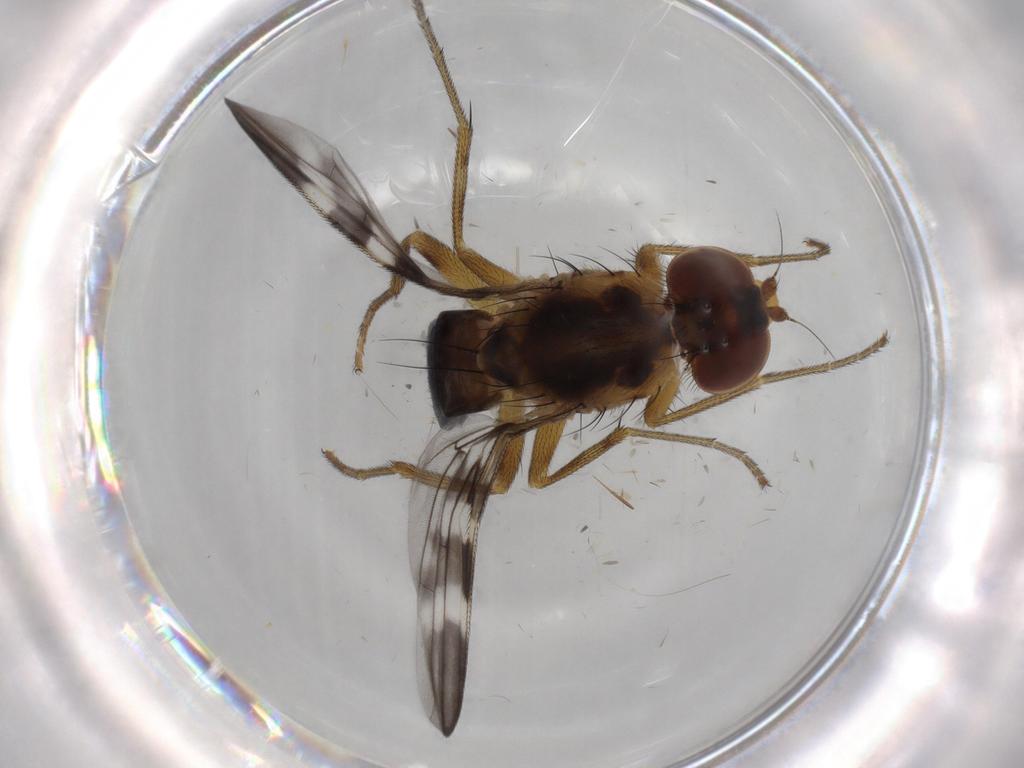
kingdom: Animalia
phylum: Arthropoda
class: Insecta
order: Diptera
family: Tephritidae
